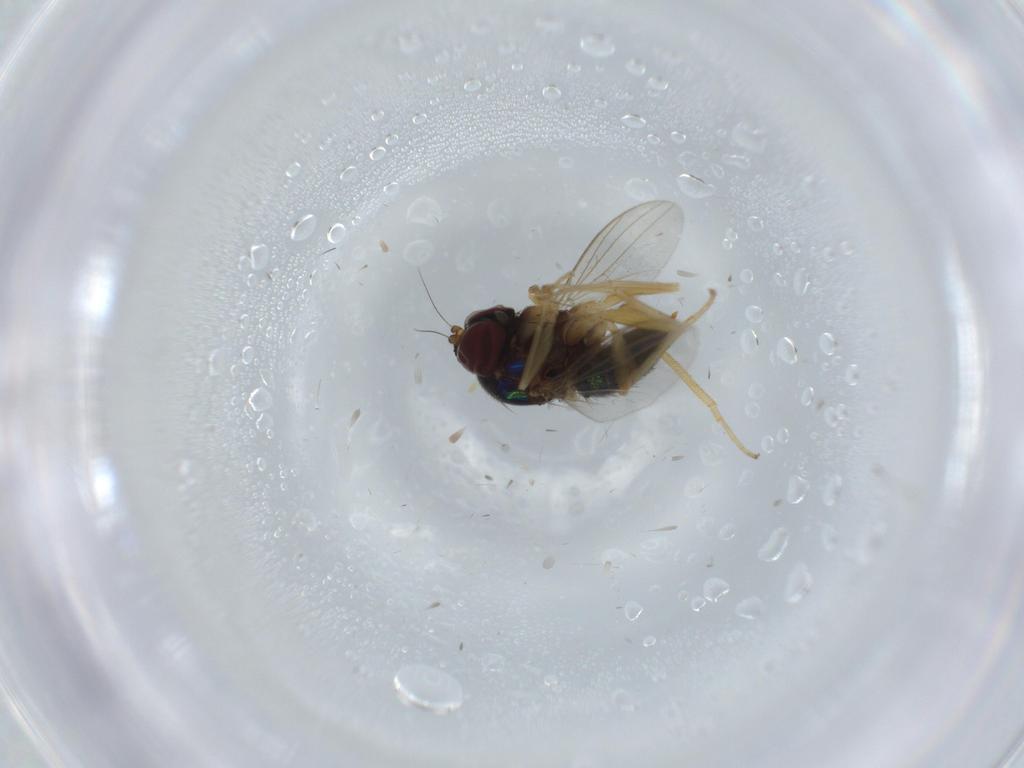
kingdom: Animalia
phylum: Arthropoda
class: Insecta
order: Diptera
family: Dolichopodidae
